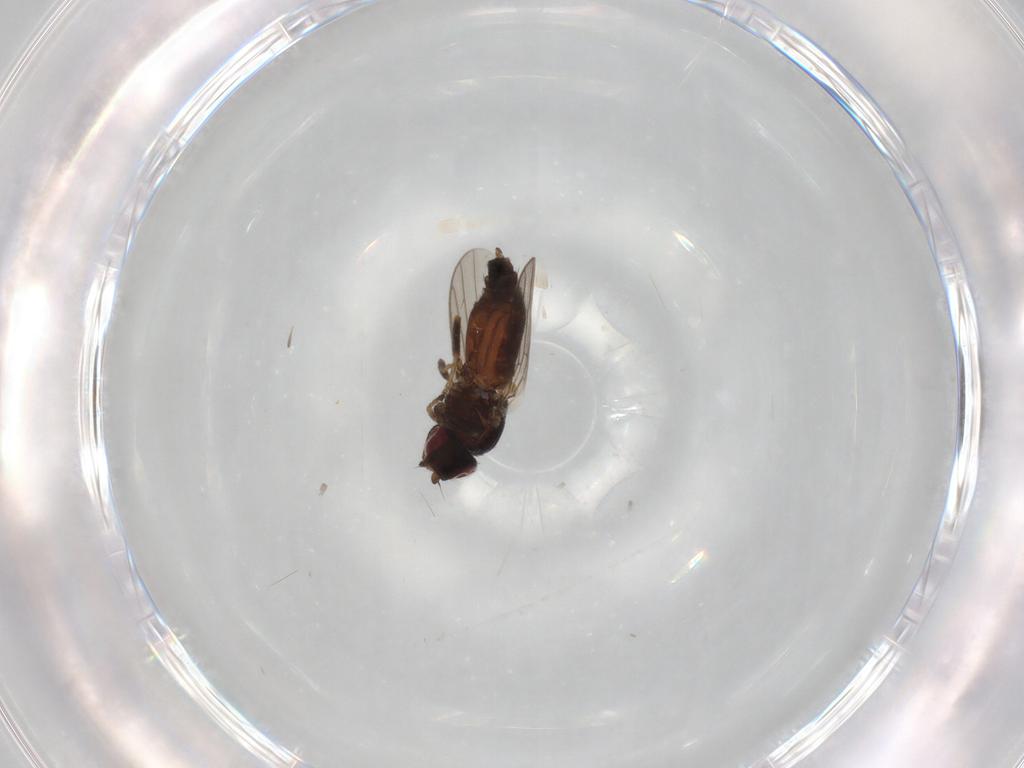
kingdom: Animalia
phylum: Arthropoda
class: Insecta
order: Diptera
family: Chloropidae
